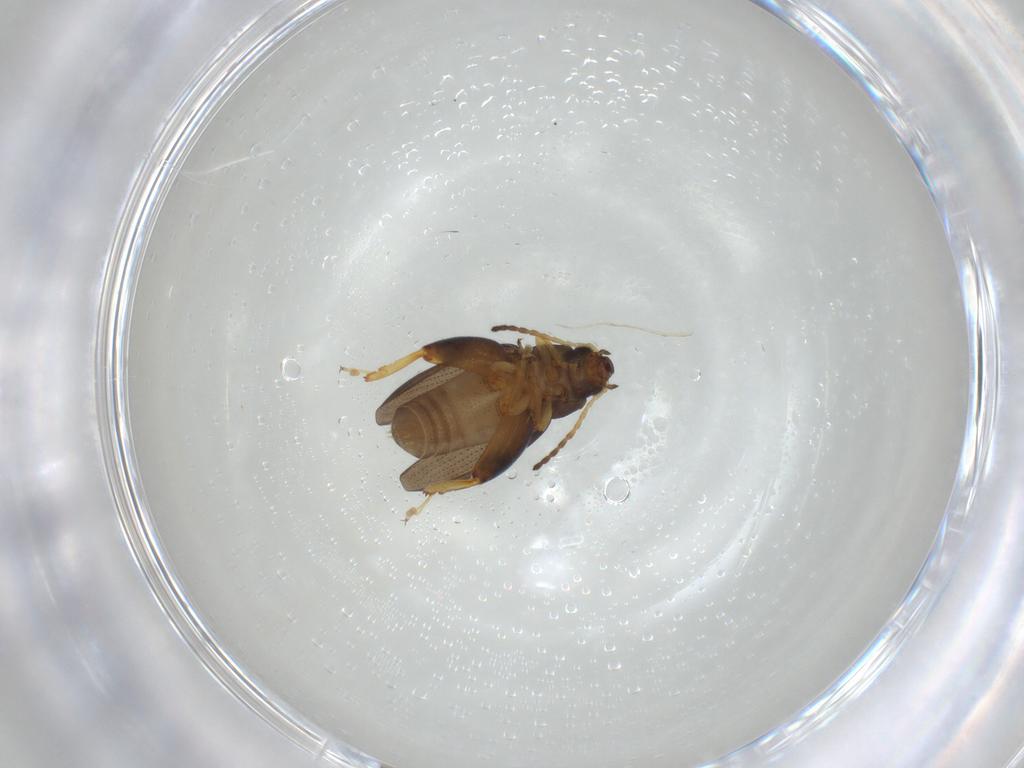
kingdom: Animalia
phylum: Arthropoda
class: Insecta
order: Coleoptera
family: Chrysomelidae
